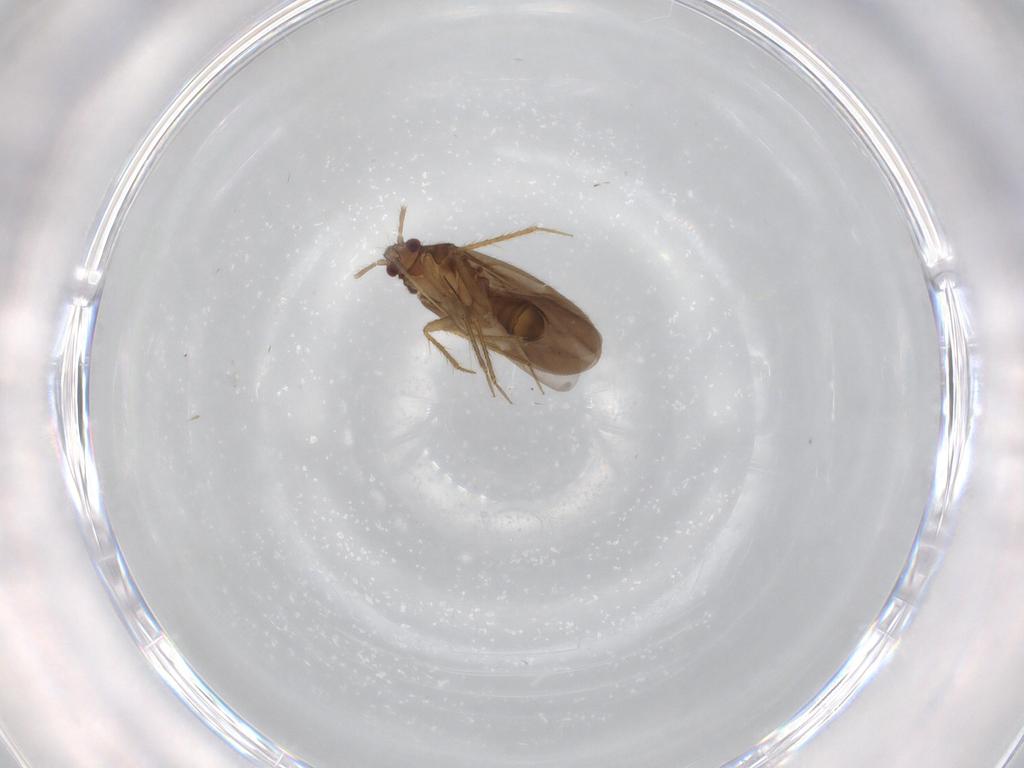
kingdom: Animalia
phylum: Arthropoda
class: Insecta
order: Hemiptera
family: Ceratocombidae
